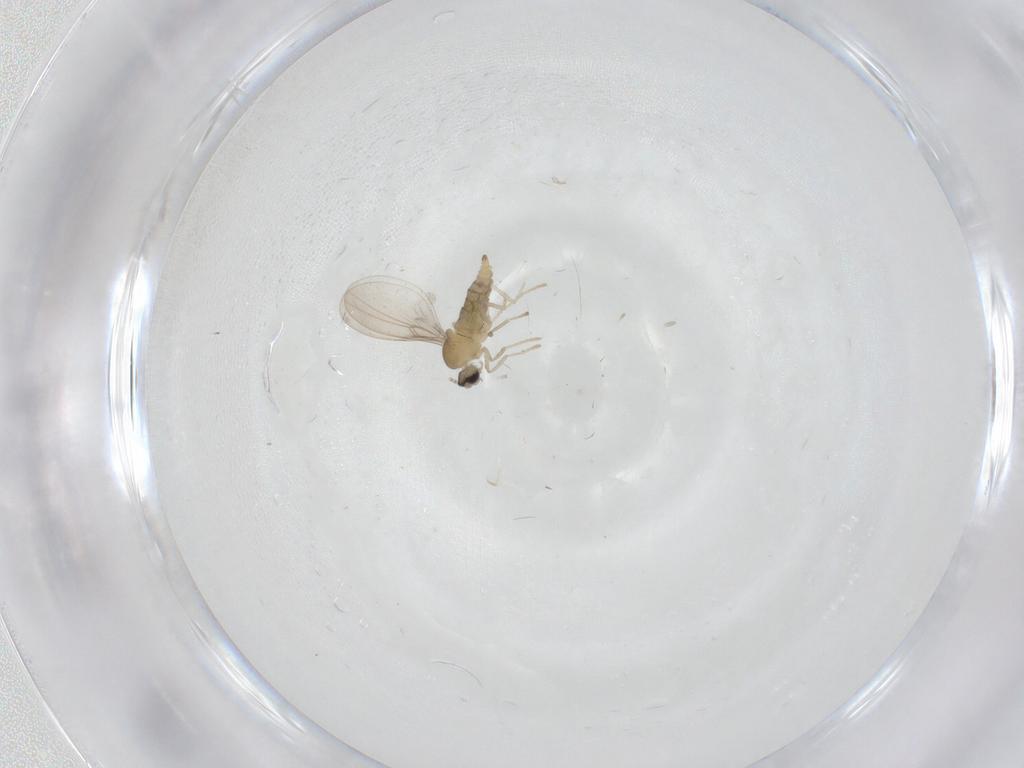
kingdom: Animalia
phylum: Arthropoda
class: Insecta
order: Diptera
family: Cecidomyiidae
